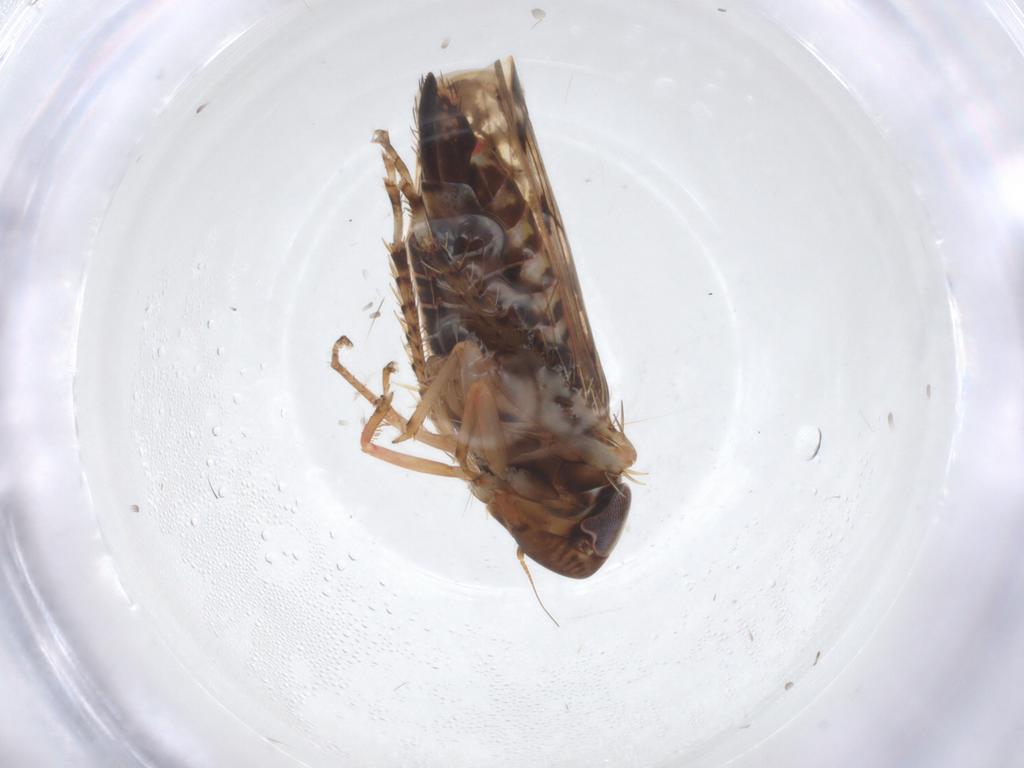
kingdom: Animalia
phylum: Arthropoda
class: Insecta
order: Hemiptera
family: Cicadellidae
